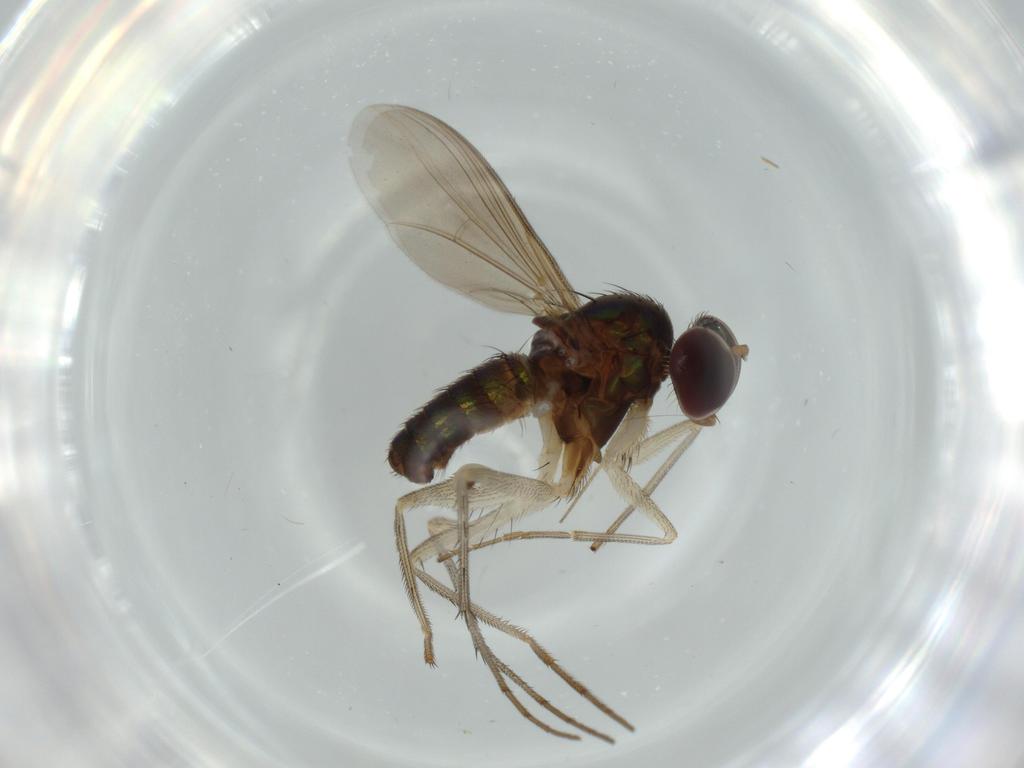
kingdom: Animalia
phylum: Arthropoda
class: Insecta
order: Diptera
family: Dolichopodidae
